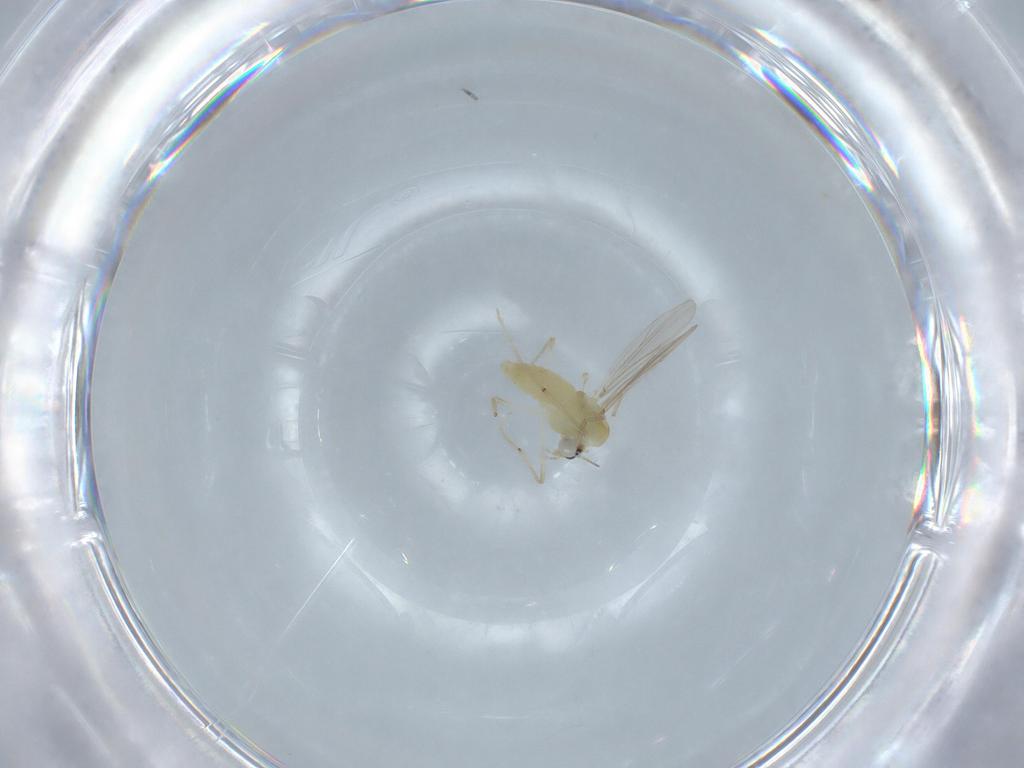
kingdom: Animalia
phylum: Arthropoda
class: Insecta
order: Diptera
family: Chironomidae
